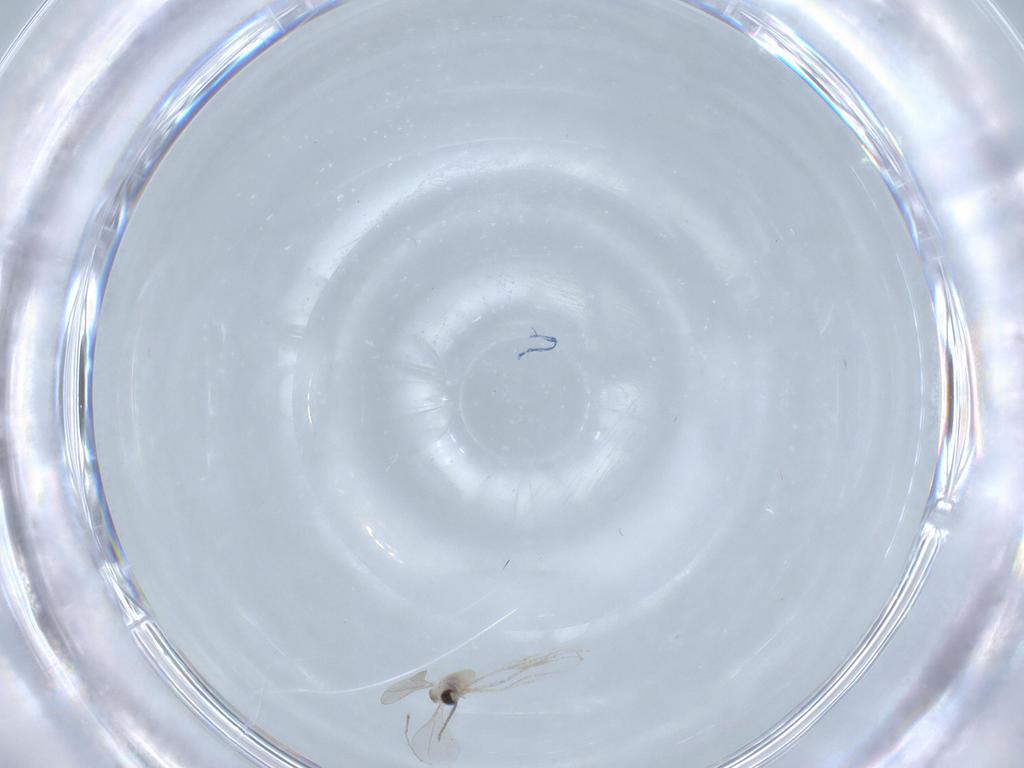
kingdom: Animalia
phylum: Arthropoda
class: Insecta
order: Diptera
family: Cecidomyiidae
